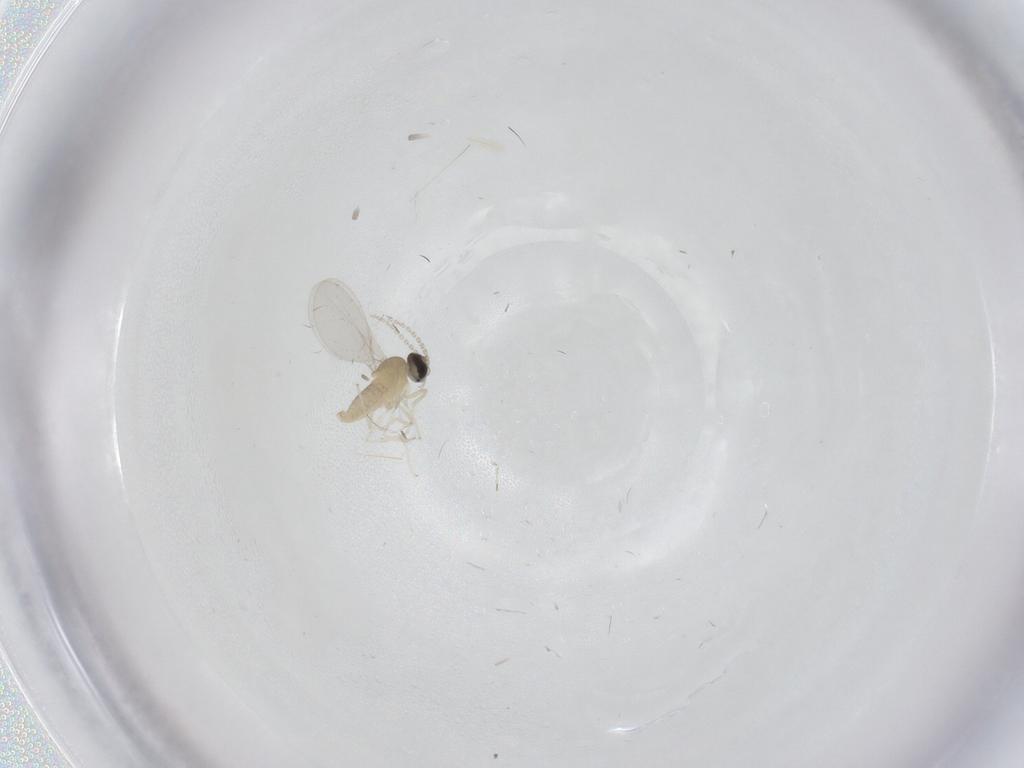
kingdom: Animalia
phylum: Arthropoda
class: Insecta
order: Diptera
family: Cecidomyiidae
